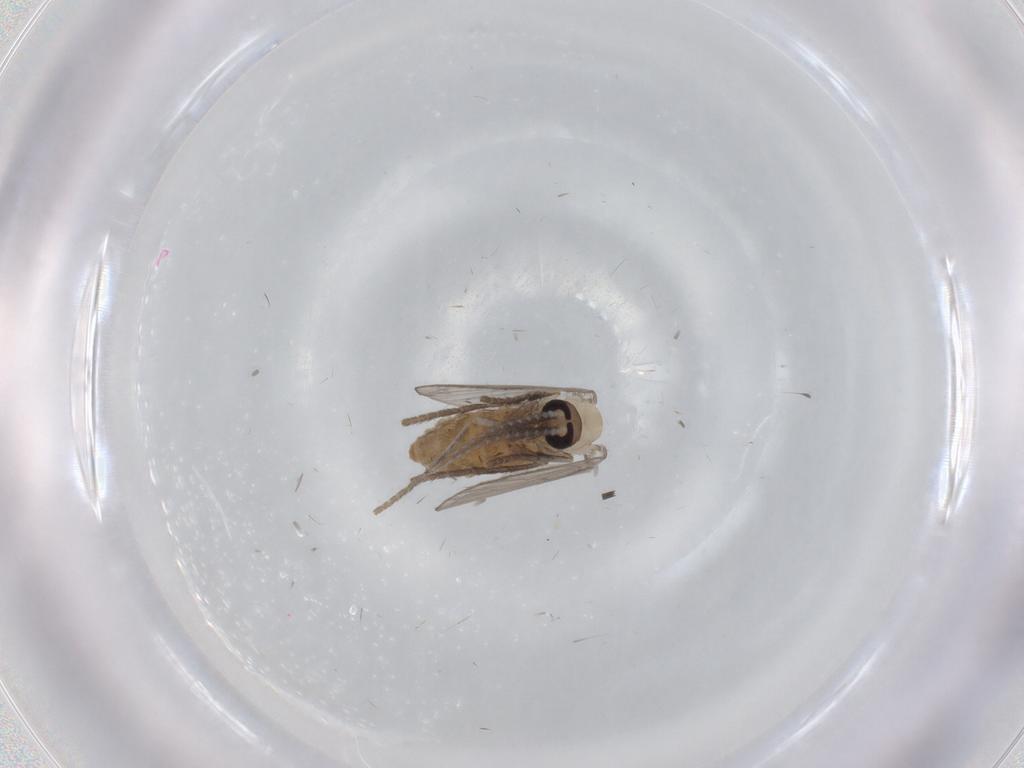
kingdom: Animalia
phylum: Arthropoda
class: Insecta
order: Diptera
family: Psychodidae
